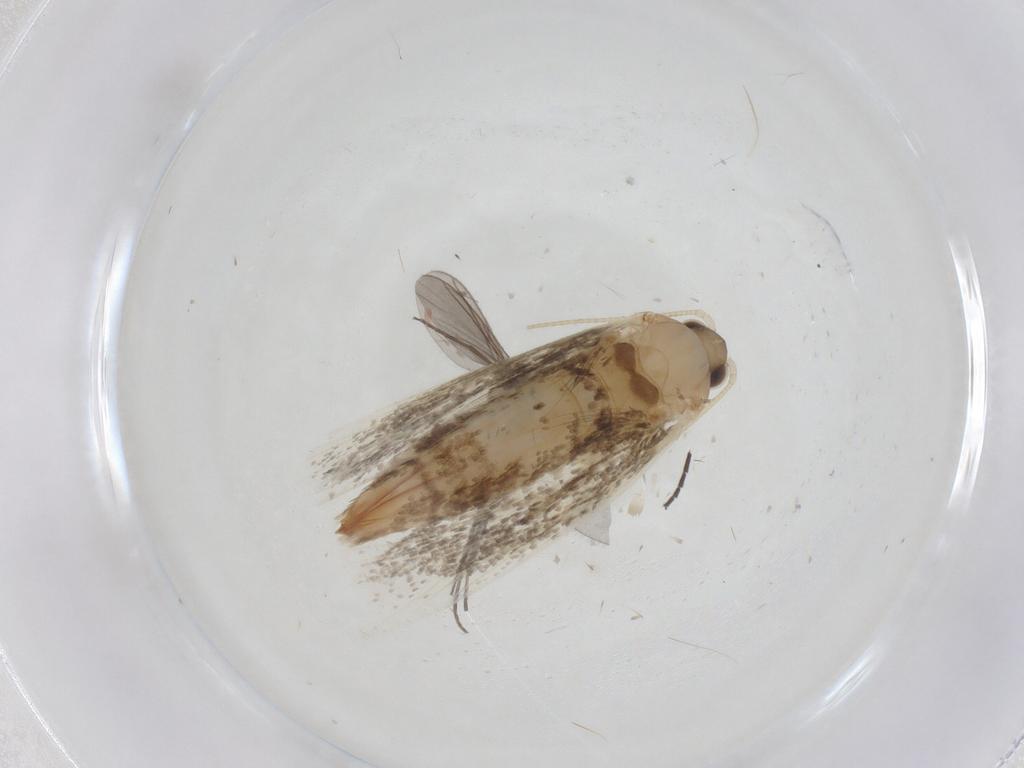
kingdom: Animalia
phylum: Arthropoda
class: Insecta
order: Lepidoptera
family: Cosmopterigidae
